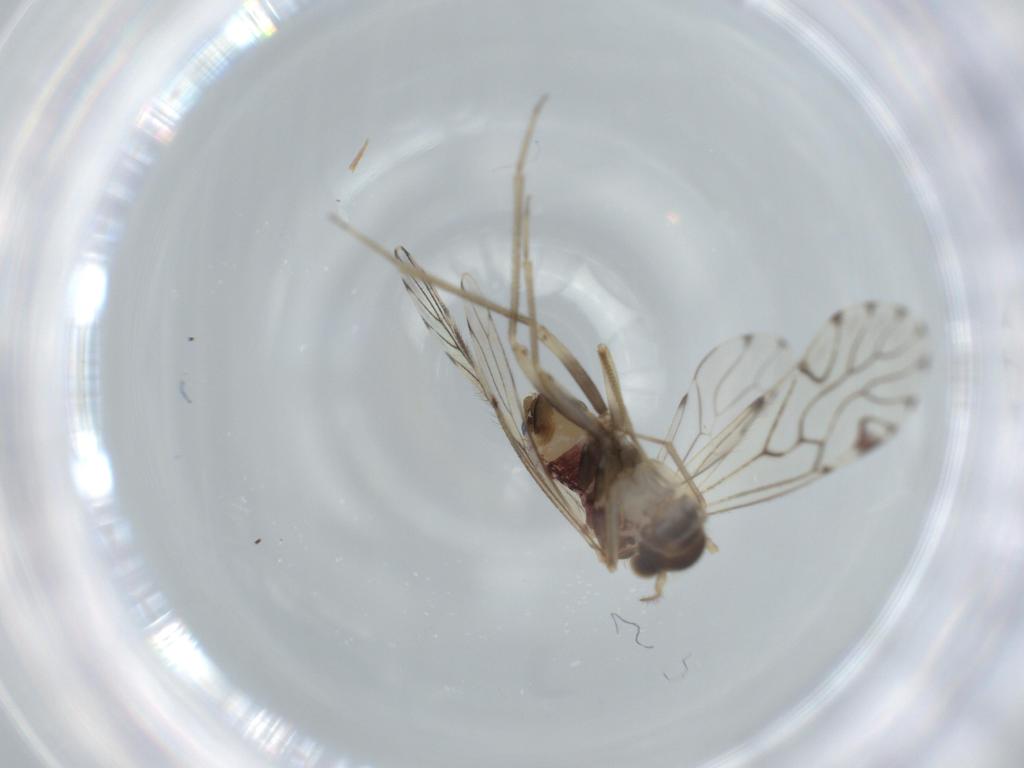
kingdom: Animalia
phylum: Arthropoda
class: Insecta
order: Psocodea
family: Epipsocidae
